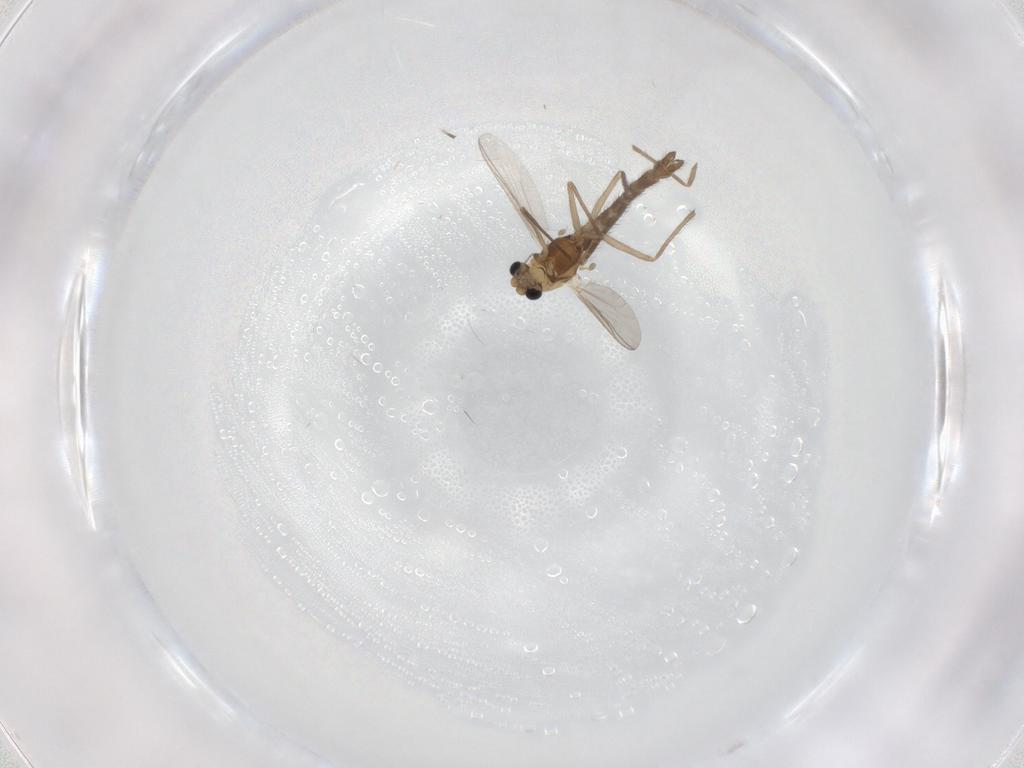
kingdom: Animalia
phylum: Arthropoda
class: Insecta
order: Diptera
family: Chironomidae
